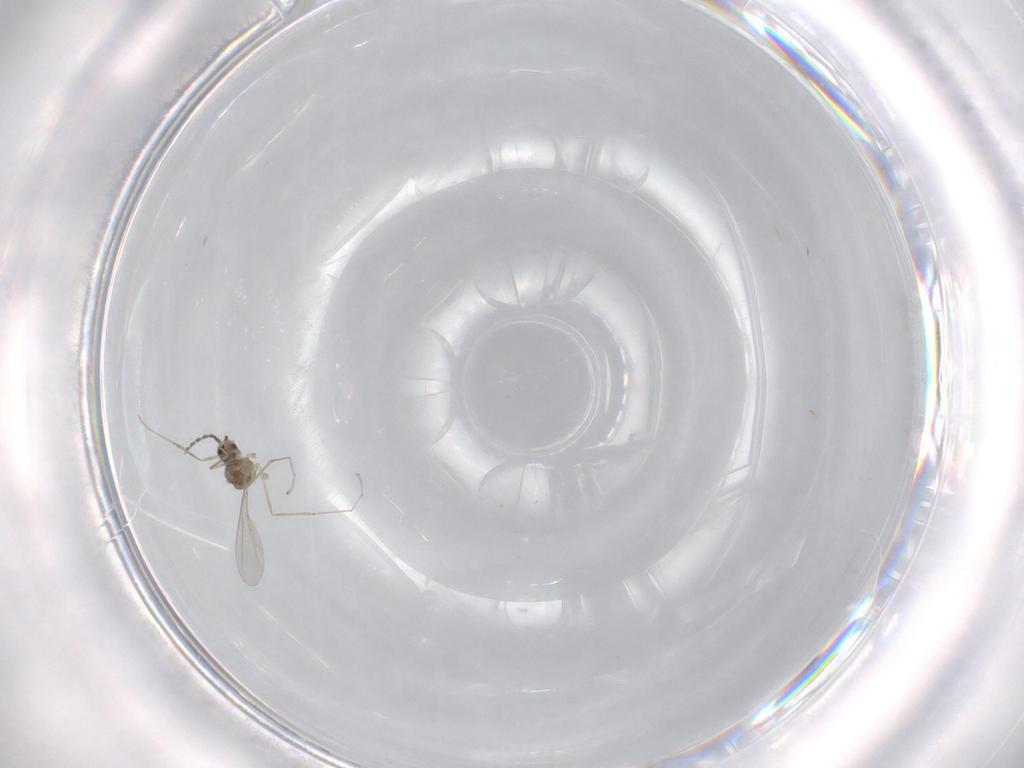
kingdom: Animalia
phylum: Arthropoda
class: Insecta
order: Diptera
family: Cecidomyiidae
